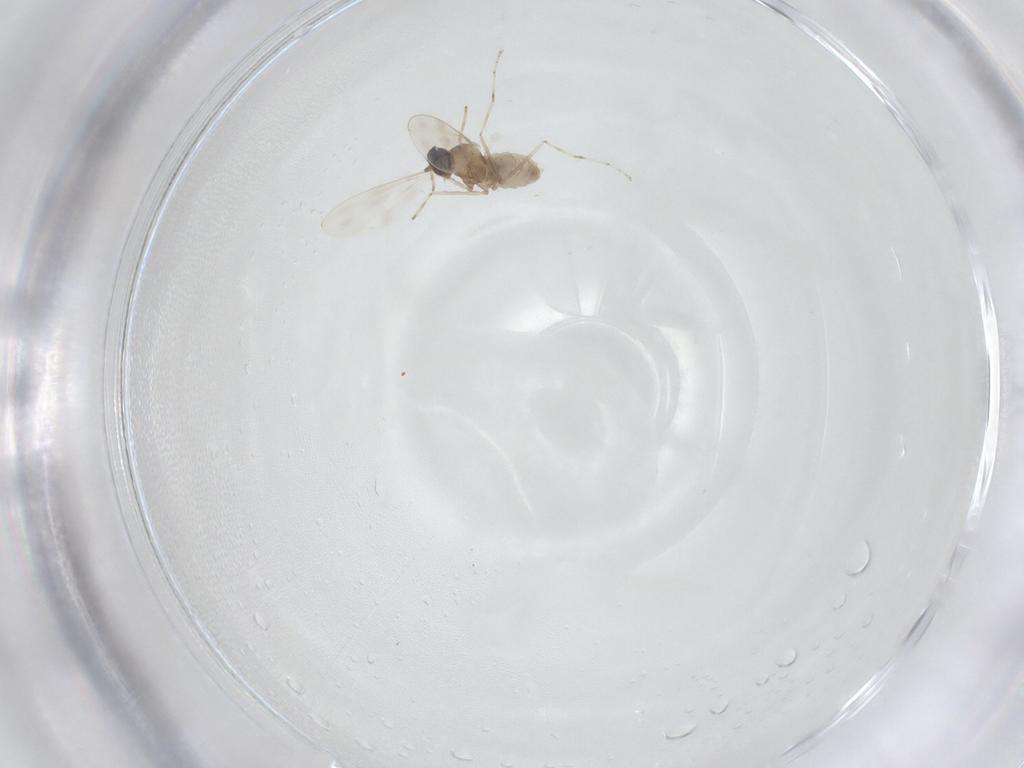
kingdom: Animalia
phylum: Arthropoda
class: Insecta
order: Diptera
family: Cecidomyiidae
